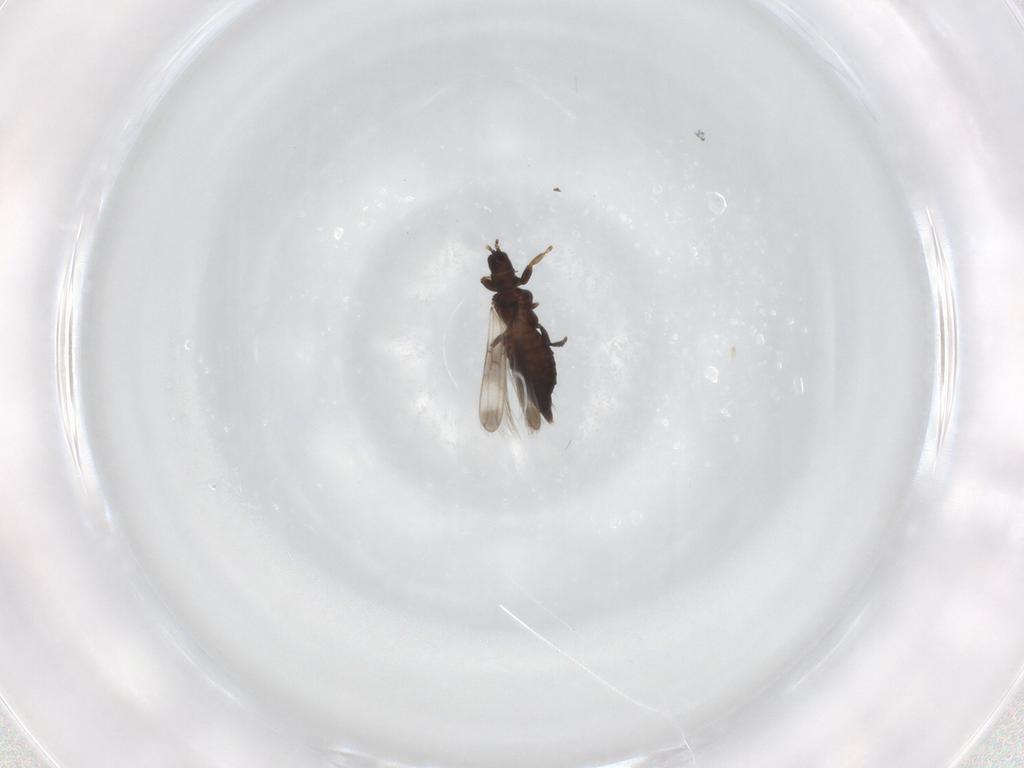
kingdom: Animalia
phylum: Arthropoda
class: Insecta
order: Thysanoptera
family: Aeolothripidae
